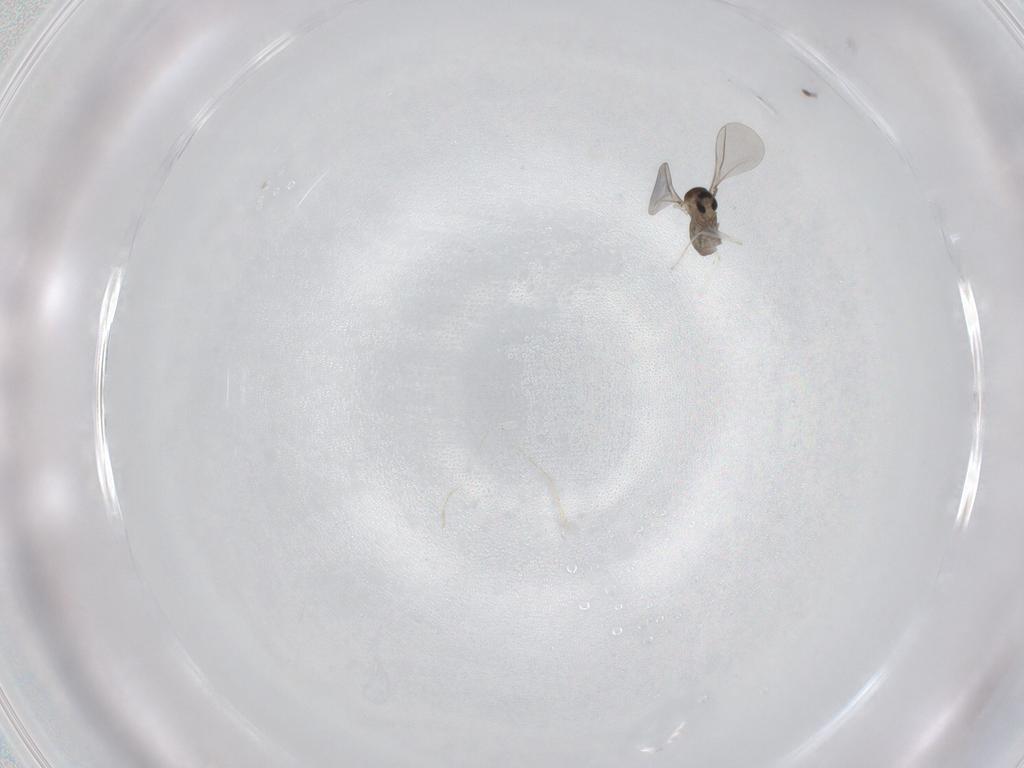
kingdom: Animalia
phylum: Arthropoda
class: Insecta
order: Diptera
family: Cecidomyiidae
